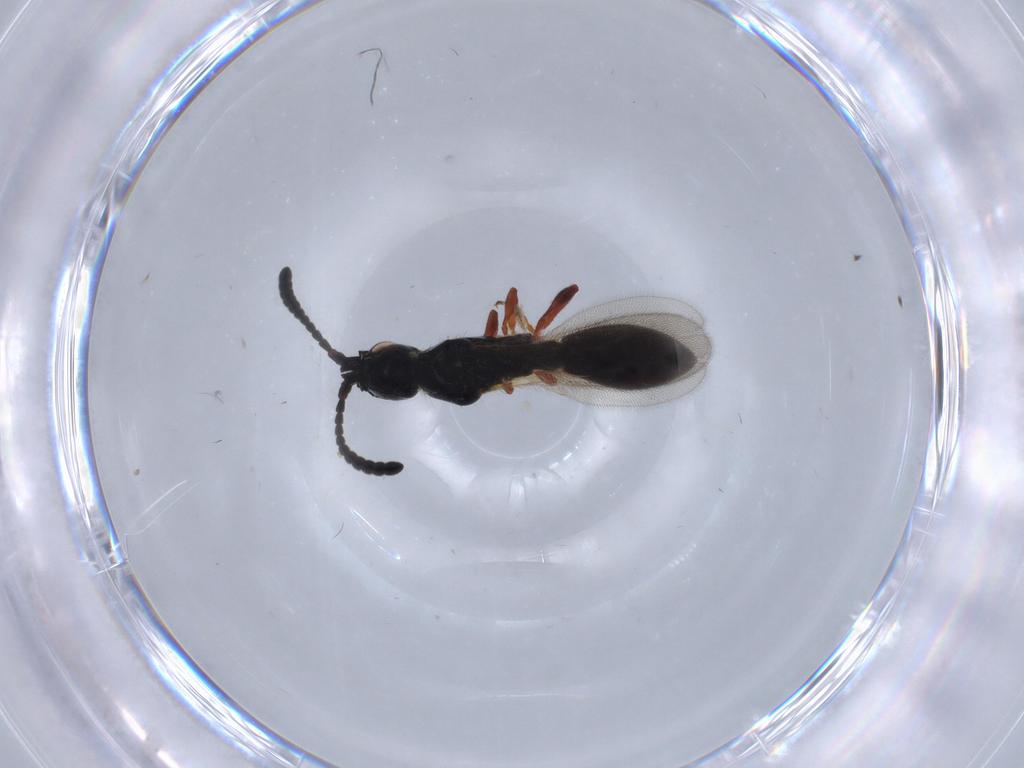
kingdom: Animalia
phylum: Arthropoda
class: Insecta
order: Hymenoptera
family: Diapriidae
